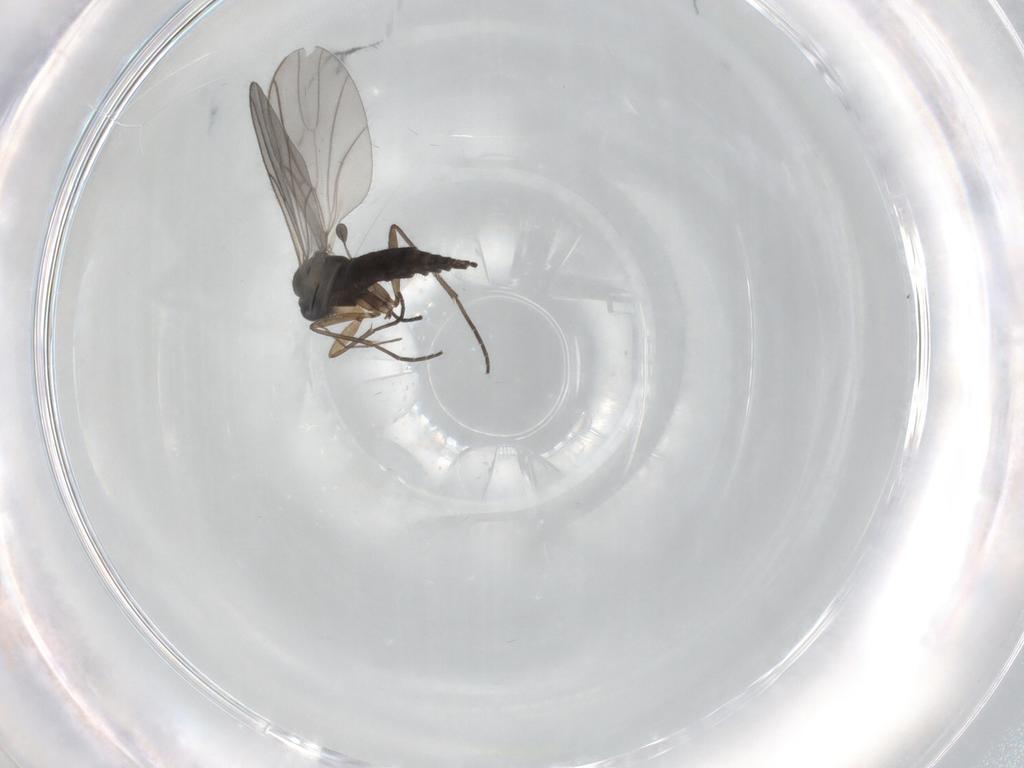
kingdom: Animalia
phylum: Arthropoda
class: Insecta
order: Diptera
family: Sciaridae
